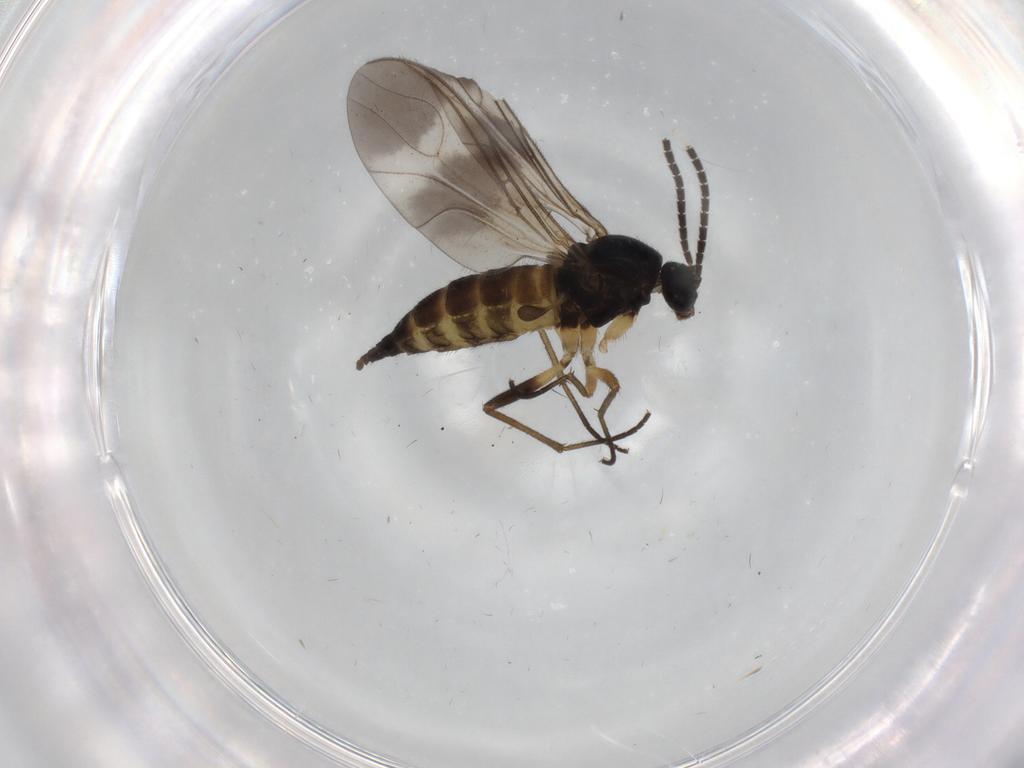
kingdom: Animalia
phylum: Arthropoda
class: Insecta
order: Diptera
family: Sciaridae
